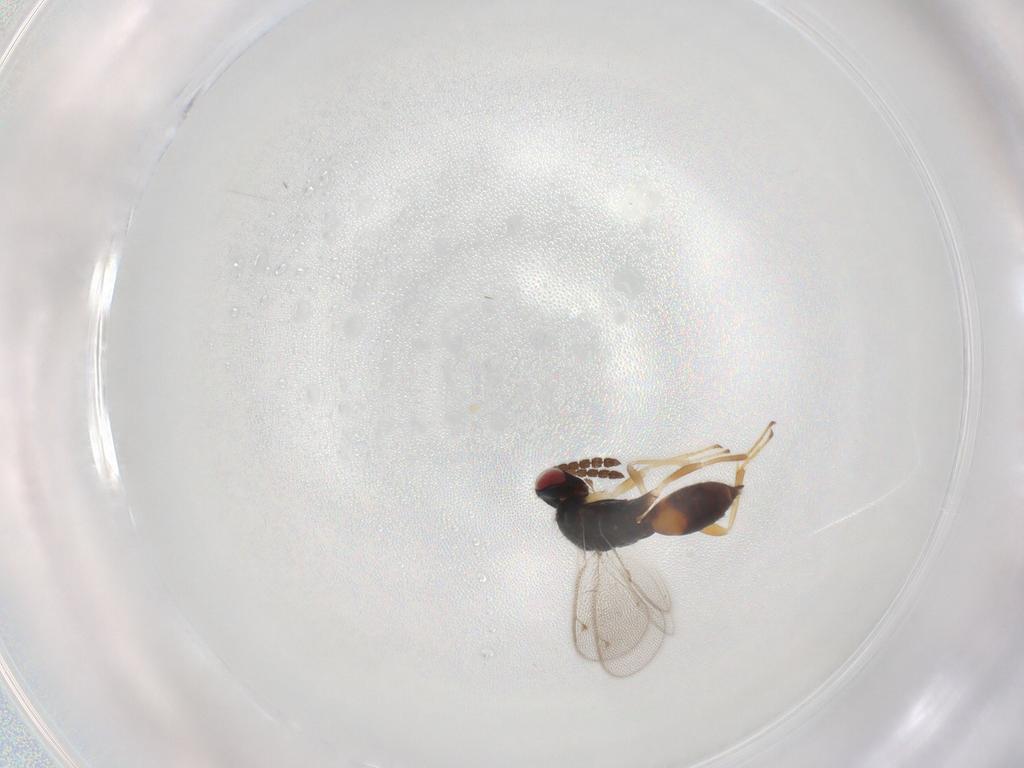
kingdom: Animalia
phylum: Arthropoda
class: Insecta
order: Hymenoptera
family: Eulophidae
